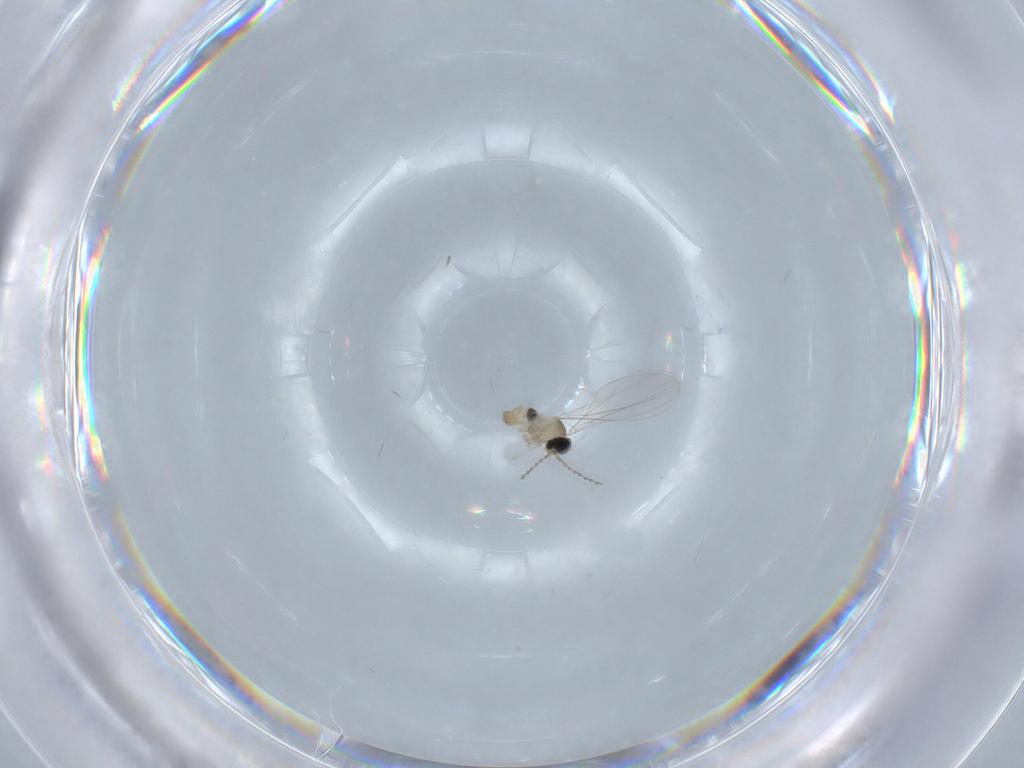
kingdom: Animalia
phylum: Arthropoda
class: Insecta
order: Diptera
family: Cecidomyiidae
